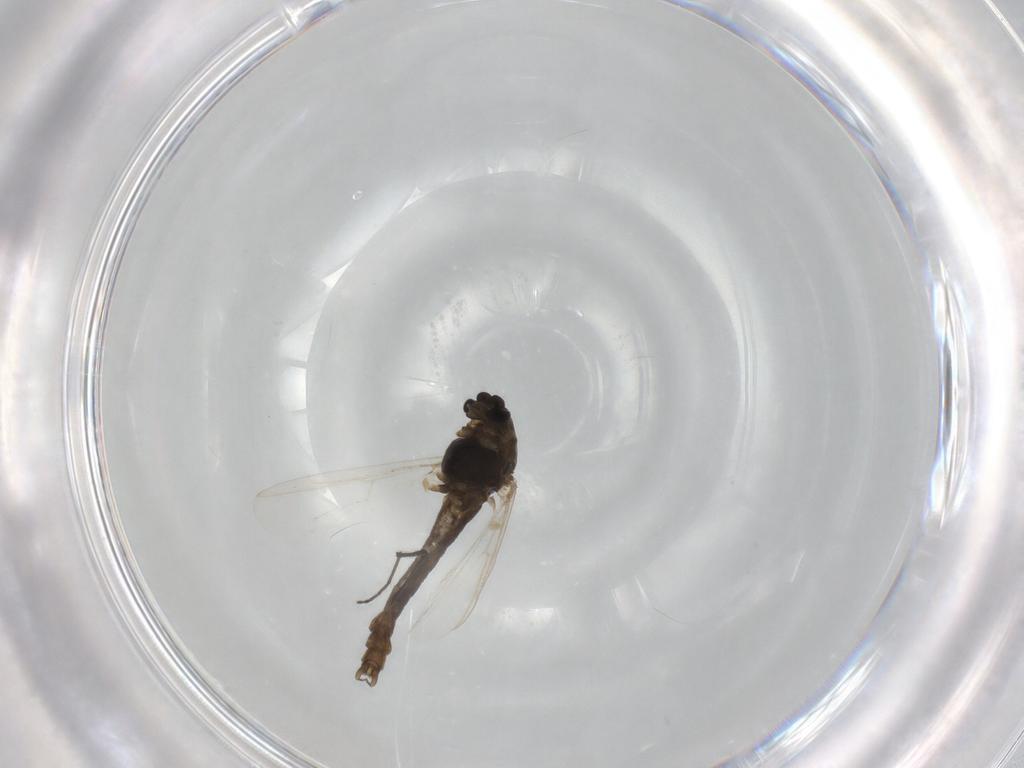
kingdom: Animalia
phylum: Arthropoda
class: Insecta
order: Diptera
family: Chironomidae
